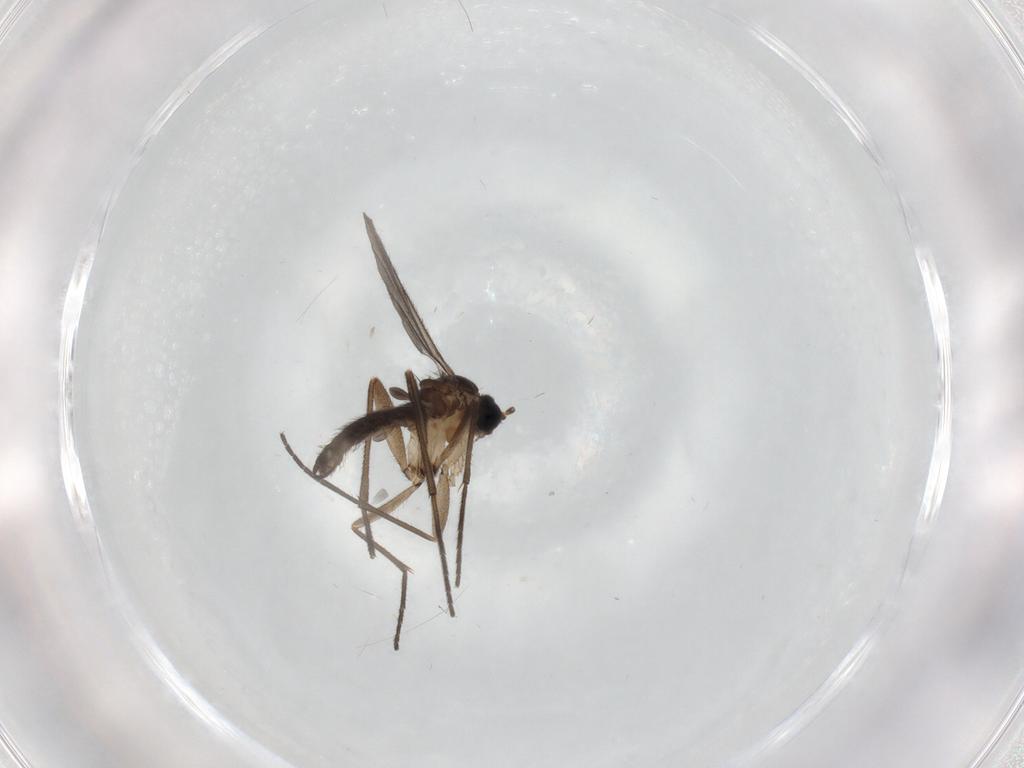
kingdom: Animalia
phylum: Arthropoda
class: Insecta
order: Diptera
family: Sciaridae
